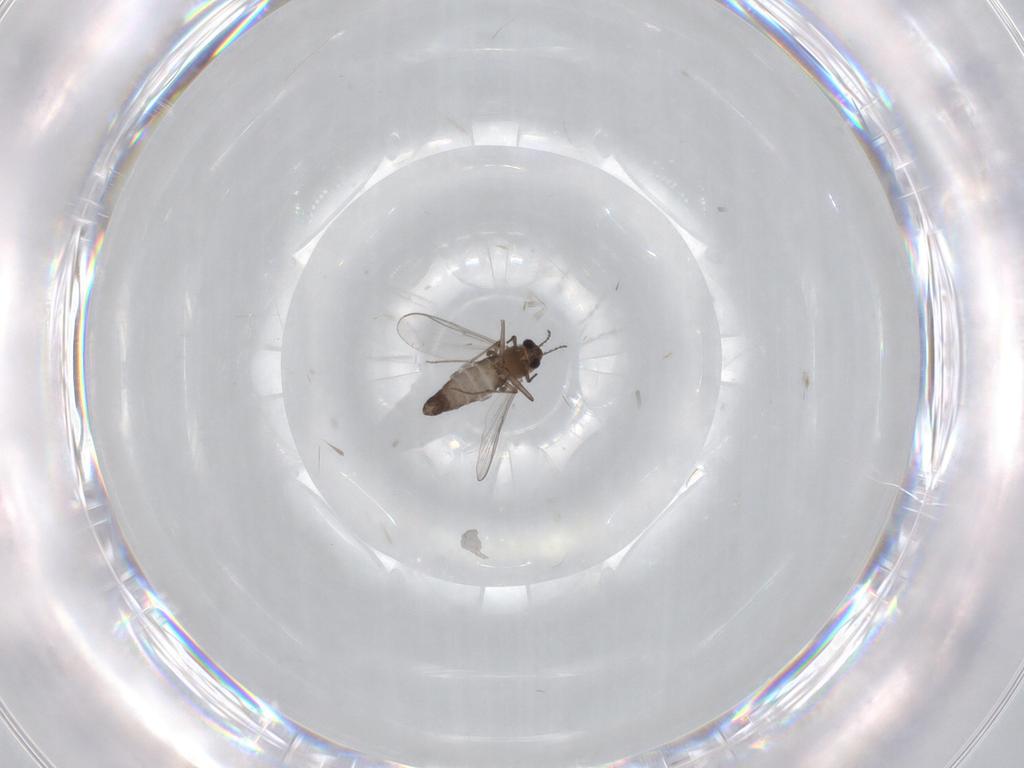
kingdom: Animalia
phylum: Arthropoda
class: Insecta
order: Diptera
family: Chironomidae
